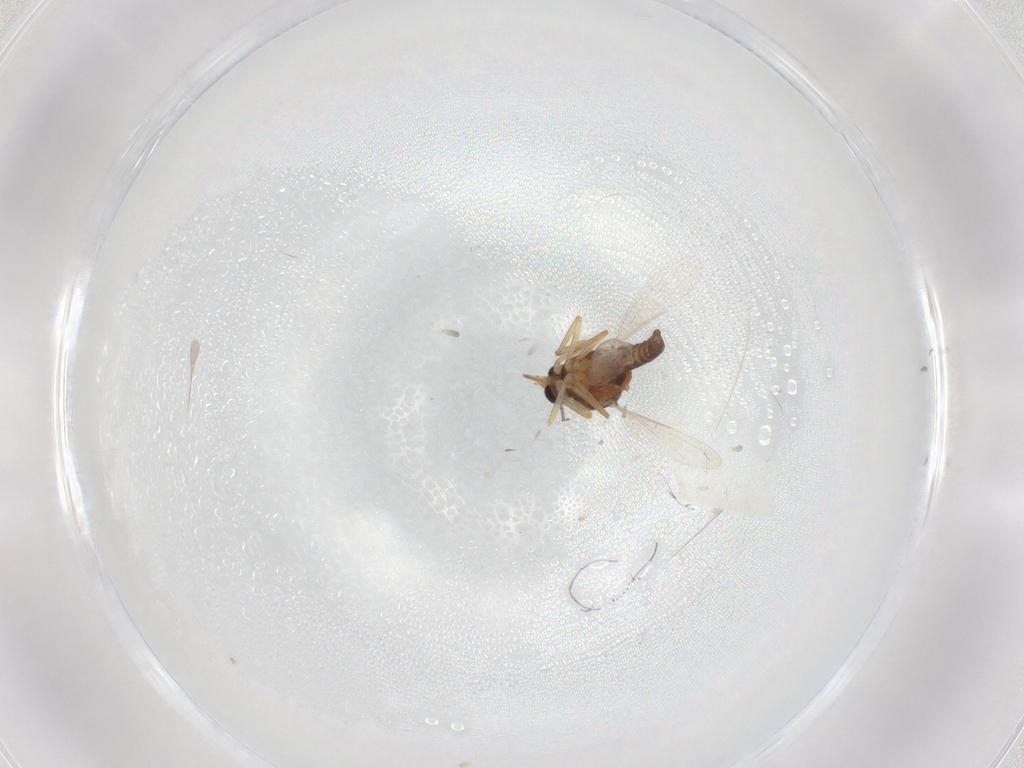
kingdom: Animalia
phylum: Arthropoda
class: Insecta
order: Diptera
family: Ceratopogonidae
